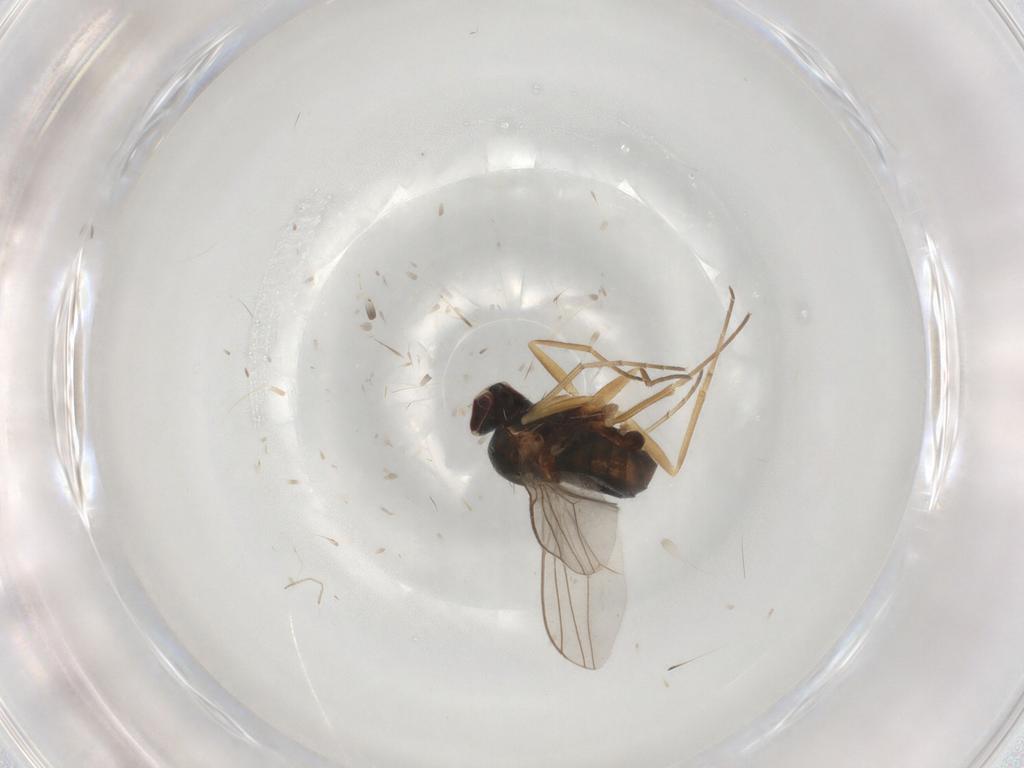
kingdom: Animalia
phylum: Arthropoda
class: Insecta
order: Diptera
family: Dolichopodidae
